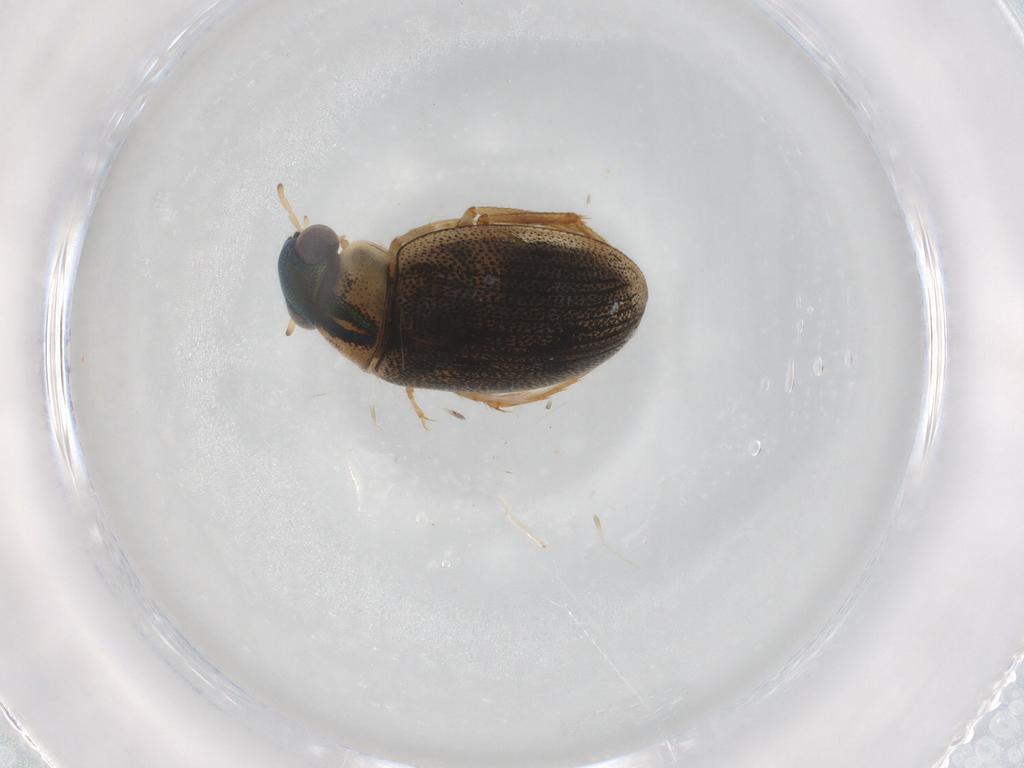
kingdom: Animalia
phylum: Arthropoda
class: Insecta
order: Coleoptera
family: Hydrophilidae
